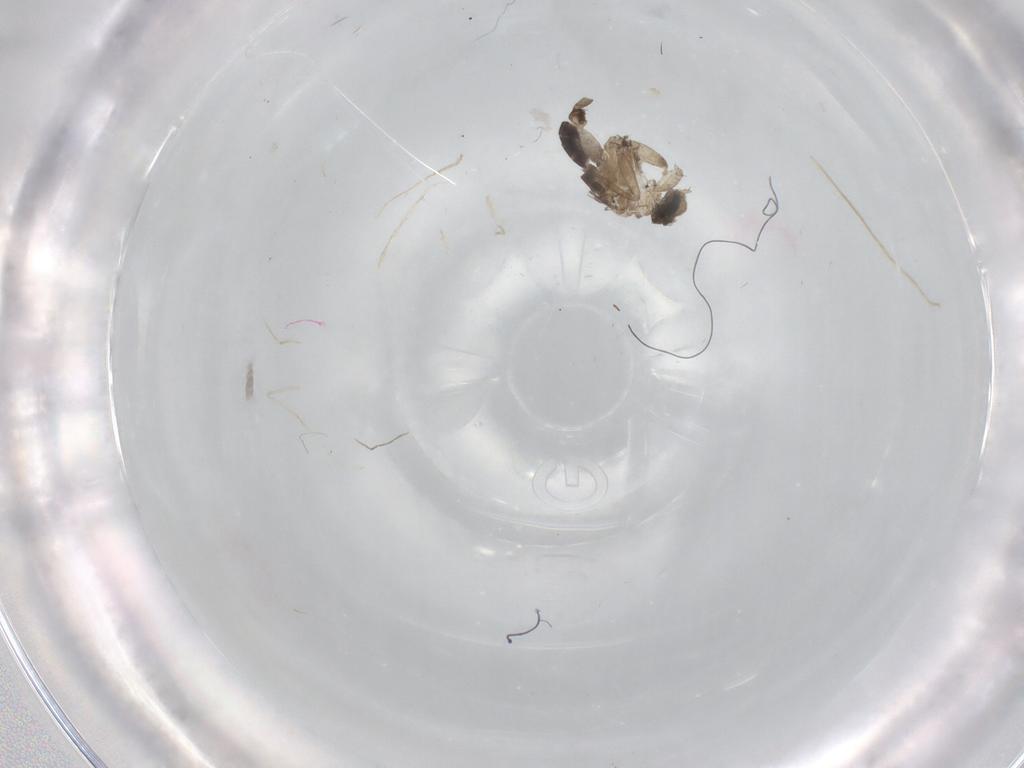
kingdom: Animalia
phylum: Arthropoda
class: Insecta
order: Diptera
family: Phoridae
